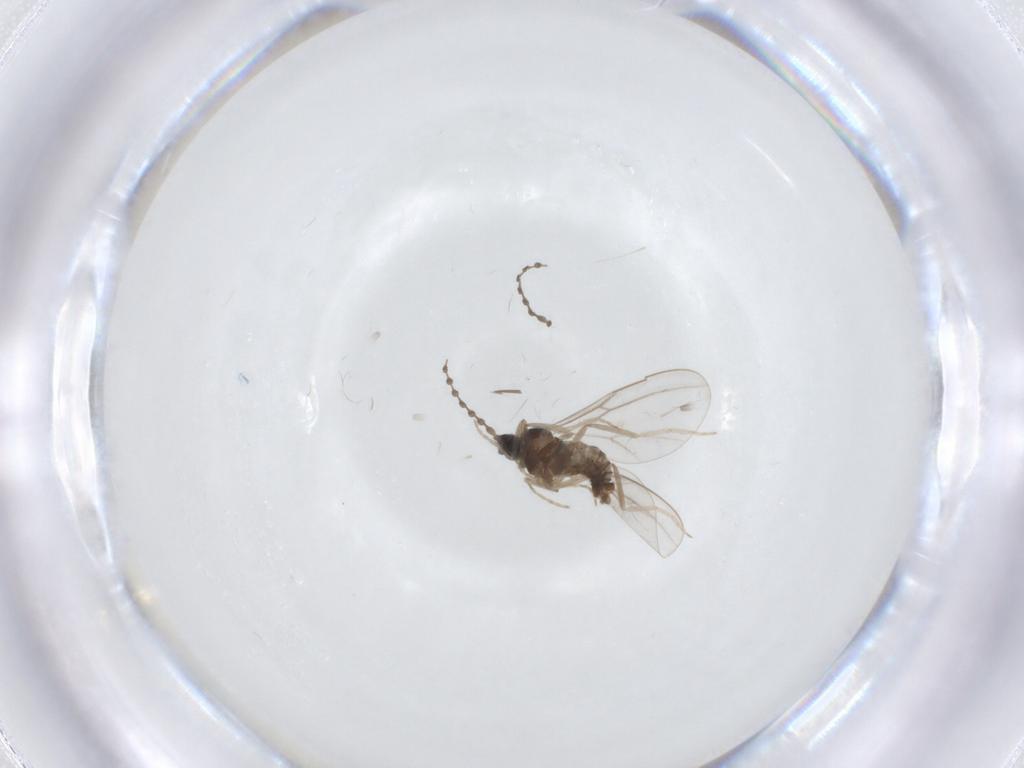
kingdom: Animalia
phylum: Arthropoda
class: Insecta
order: Diptera
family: Cecidomyiidae
